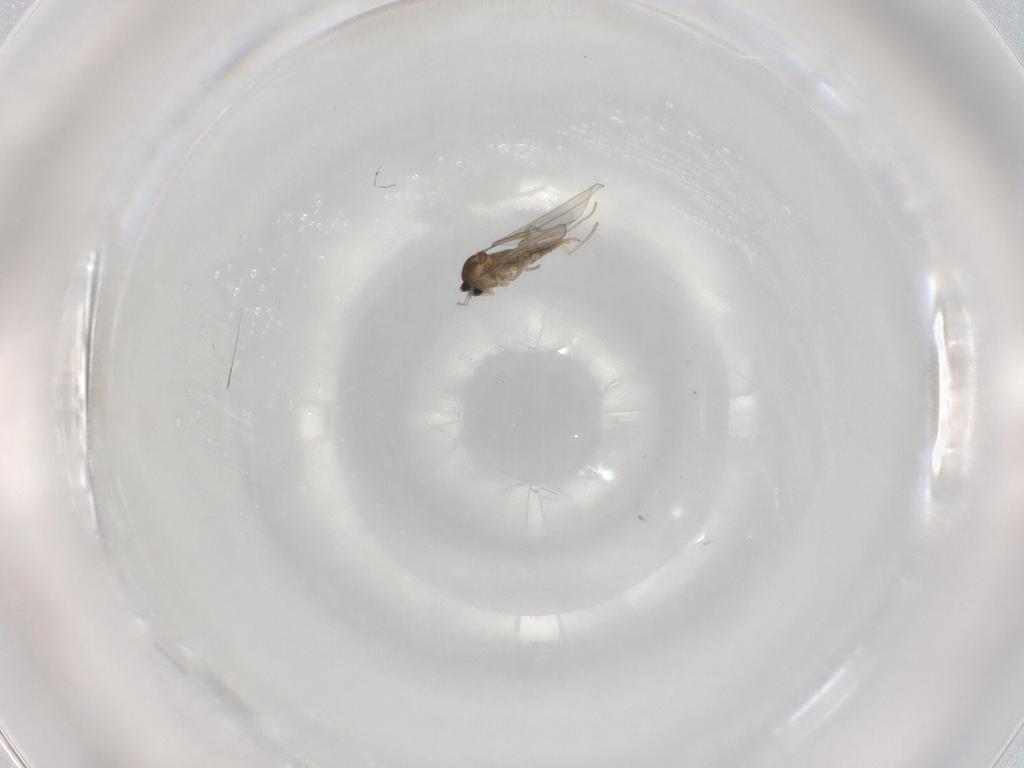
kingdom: Animalia
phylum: Arthropoda
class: Insecta
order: Diptera
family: Cecidomyiidae
